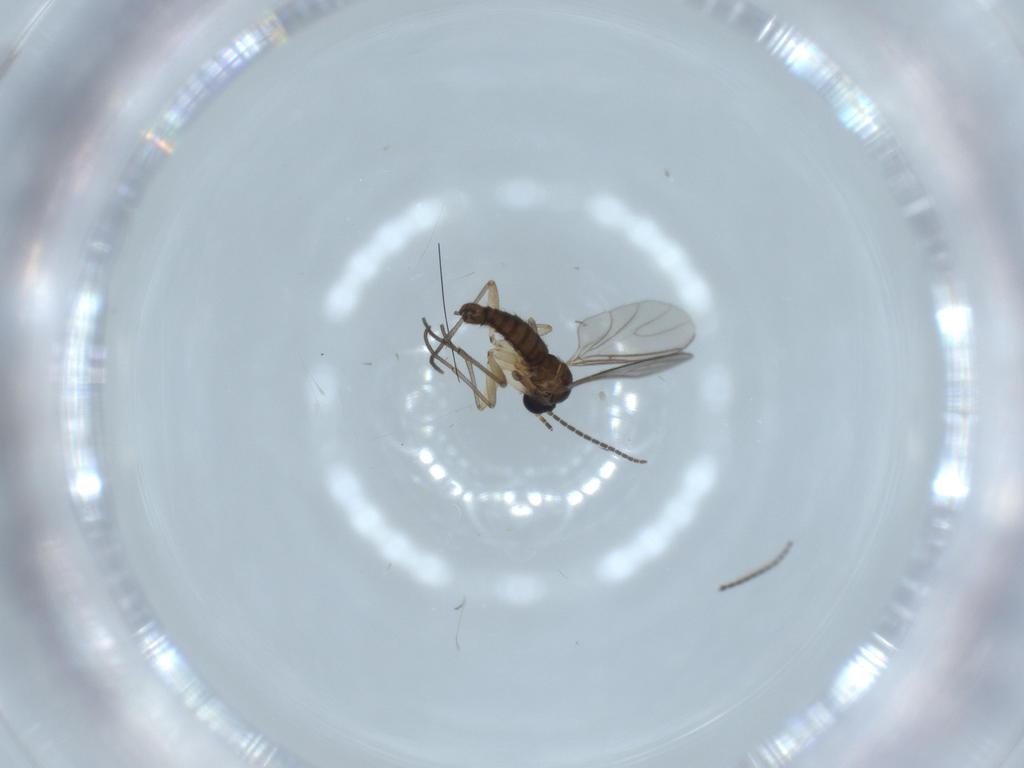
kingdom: Animalia
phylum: Arthropoda
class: Insecta
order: Diptera
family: Sciaridae
